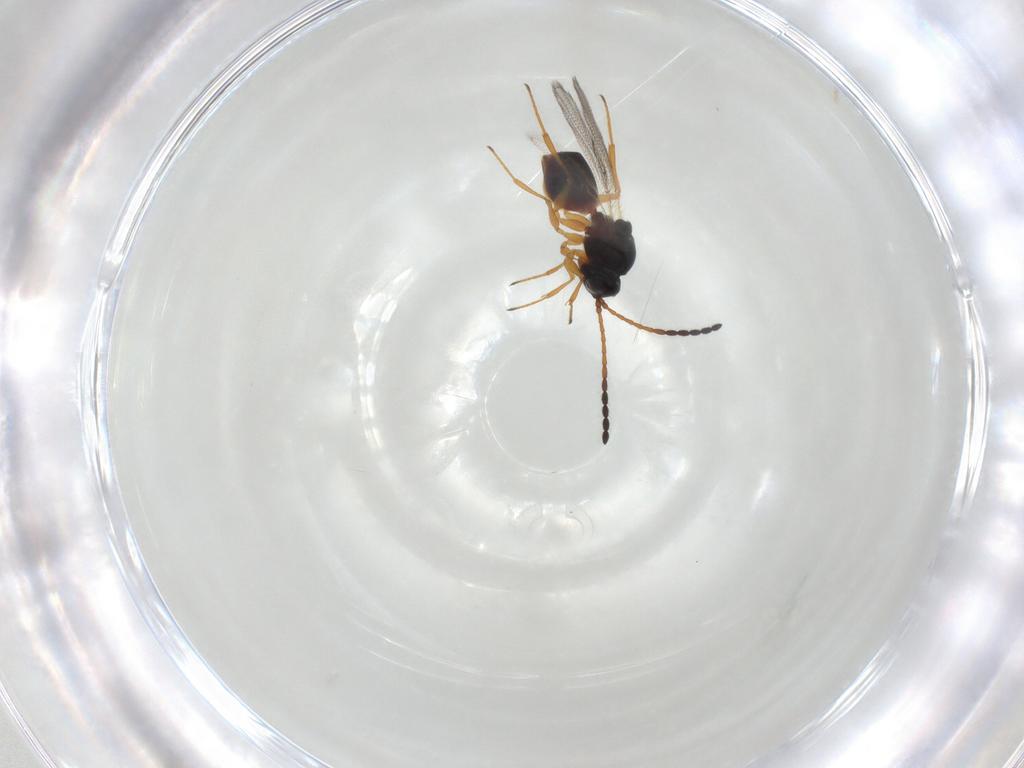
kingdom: Animalia
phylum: Arthropoda
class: Insecta
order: Hymenoptera
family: Figitidae
